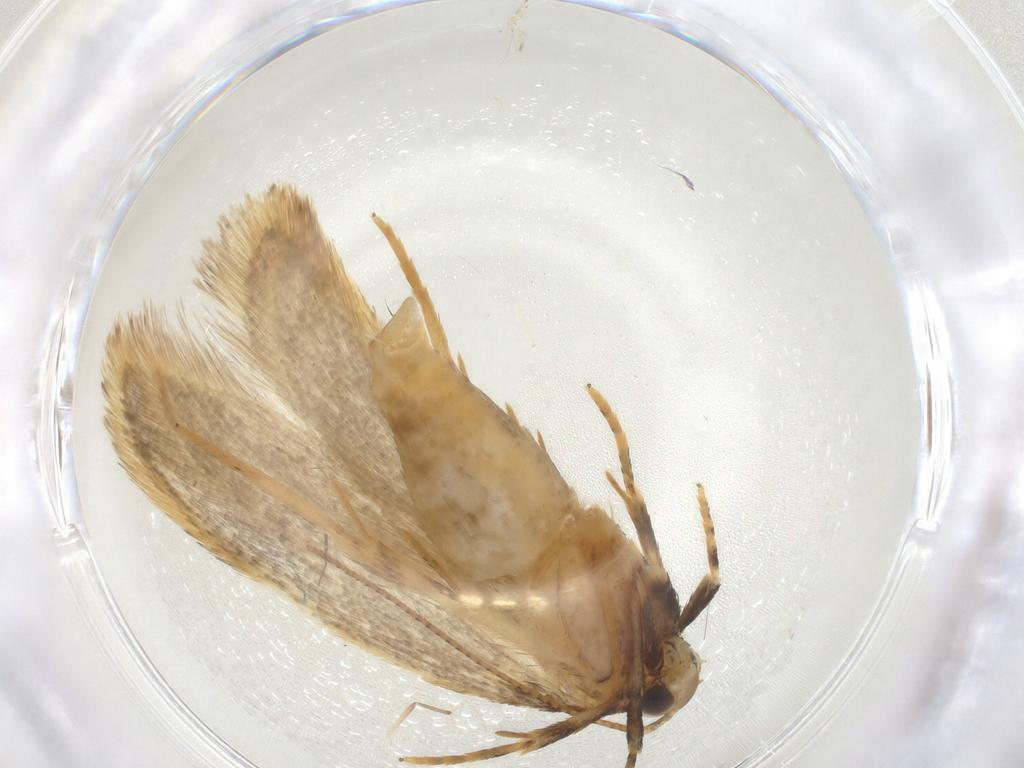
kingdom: Animalia
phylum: Arthropoda
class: Insecta
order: Lepidoptera
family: Gelechiidae
